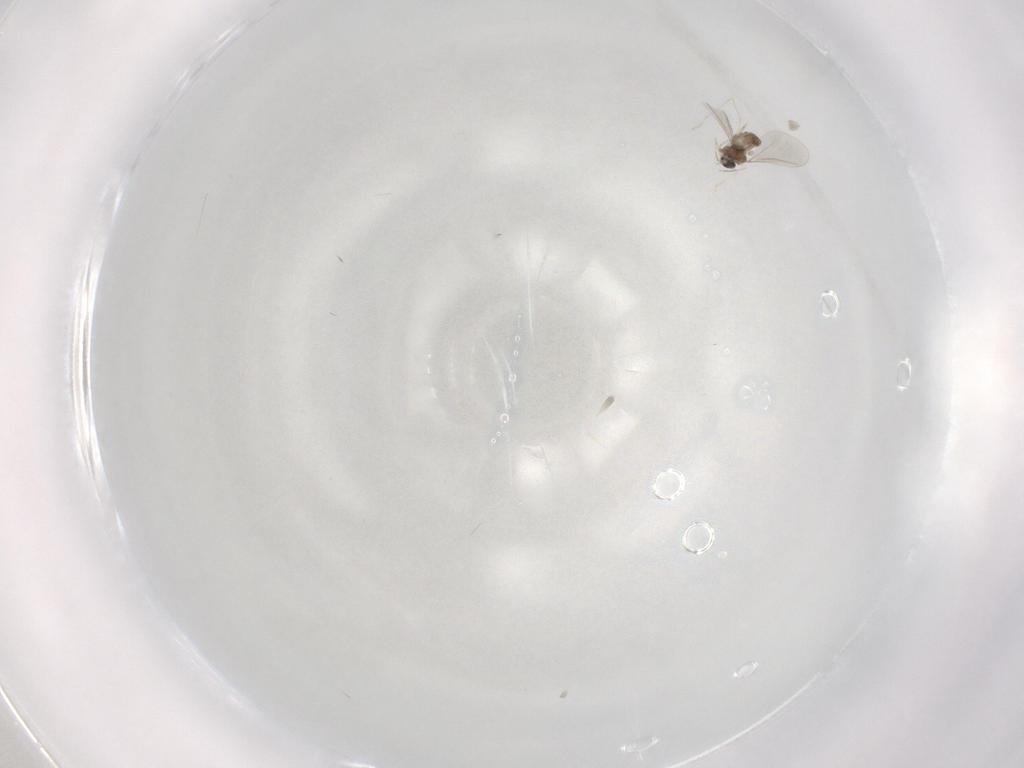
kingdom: Animalia
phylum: Arthropoda
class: Insecta
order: Diptera
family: Cecidomyiidae
